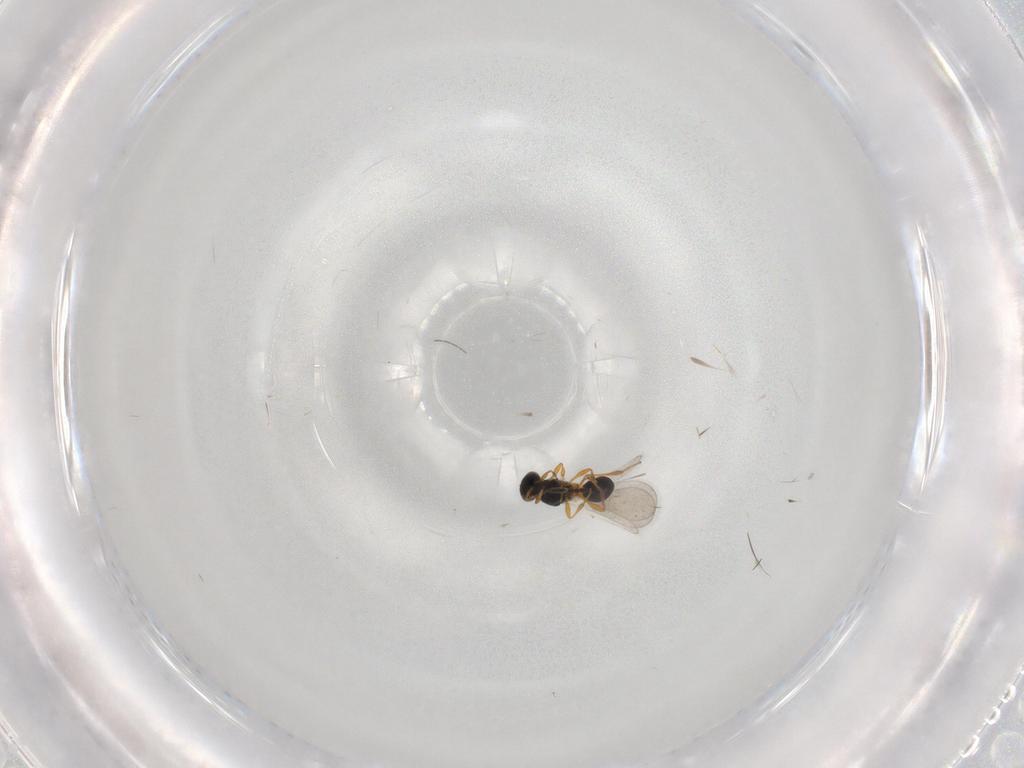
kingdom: Animalia
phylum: Arthropoda
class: Insecta
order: Hymenoptera
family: Platygastridae
